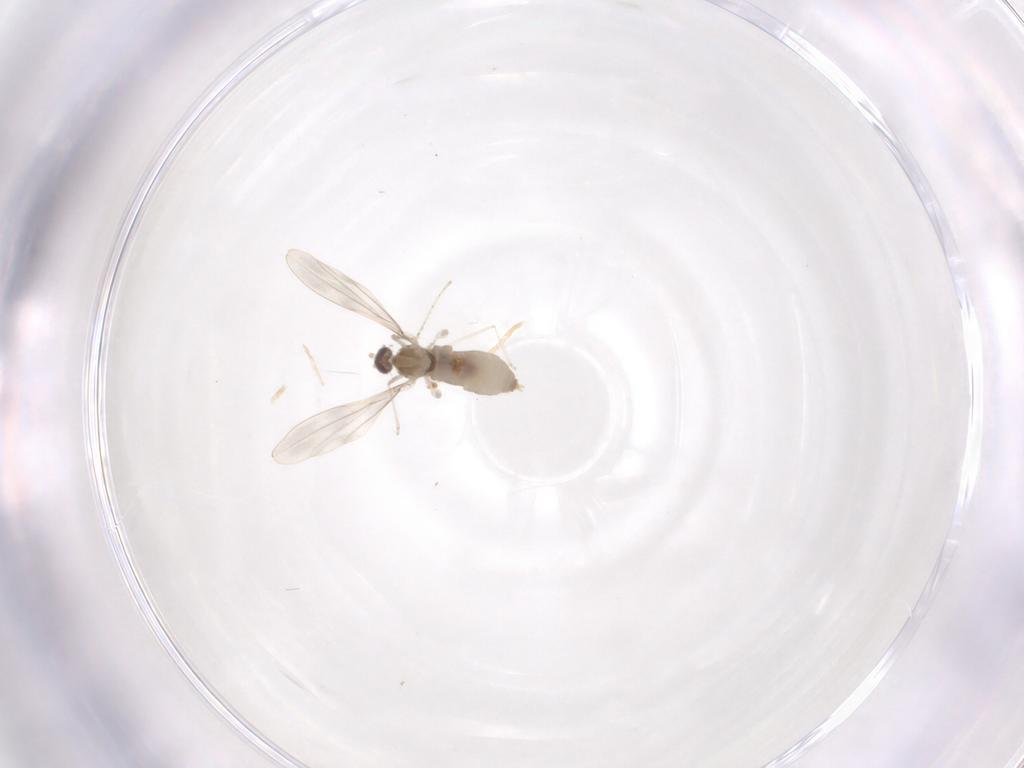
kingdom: Animalia
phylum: Arthropoda
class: Insecta
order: Diptera
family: Cecidomyiidae
